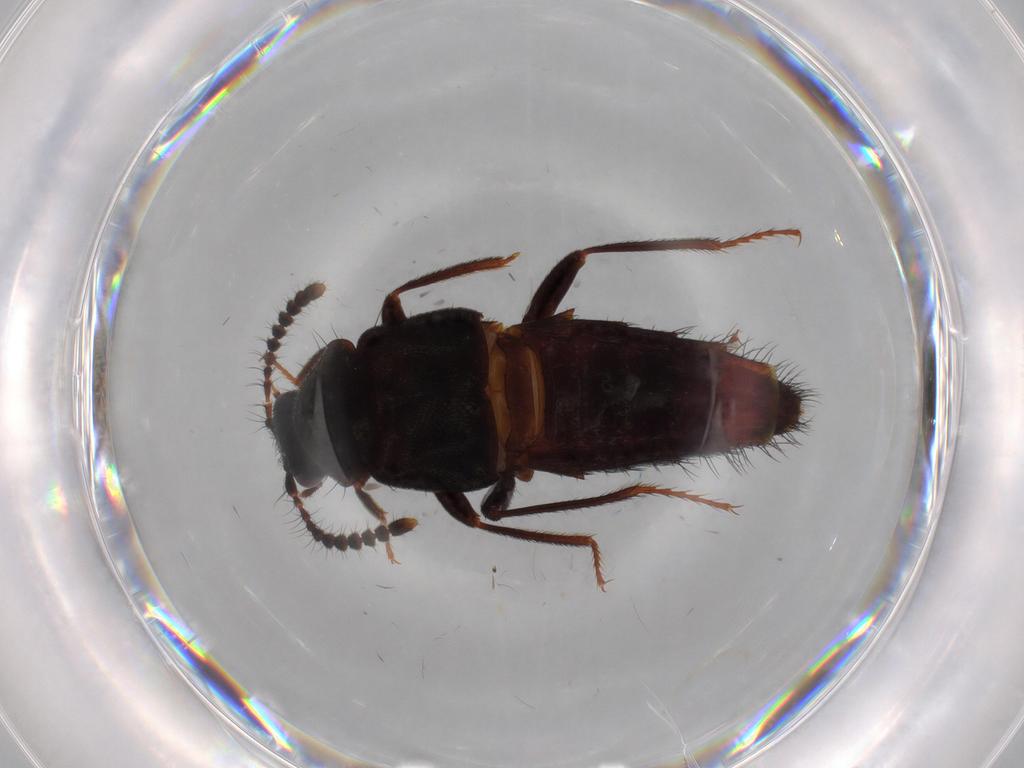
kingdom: Animalia
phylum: Arthropoda
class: Insecta
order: Coleoptera
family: Staphylinidae
